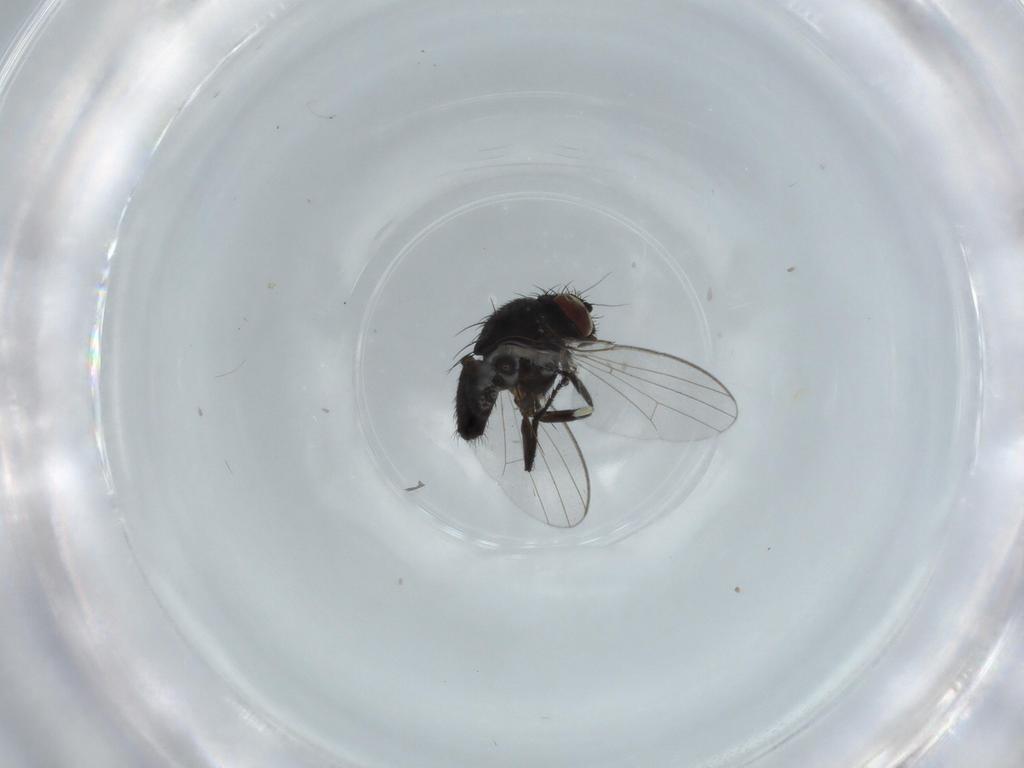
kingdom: Animalia
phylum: Arthropoda
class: Insecta
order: Diptera
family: Milichiidae
